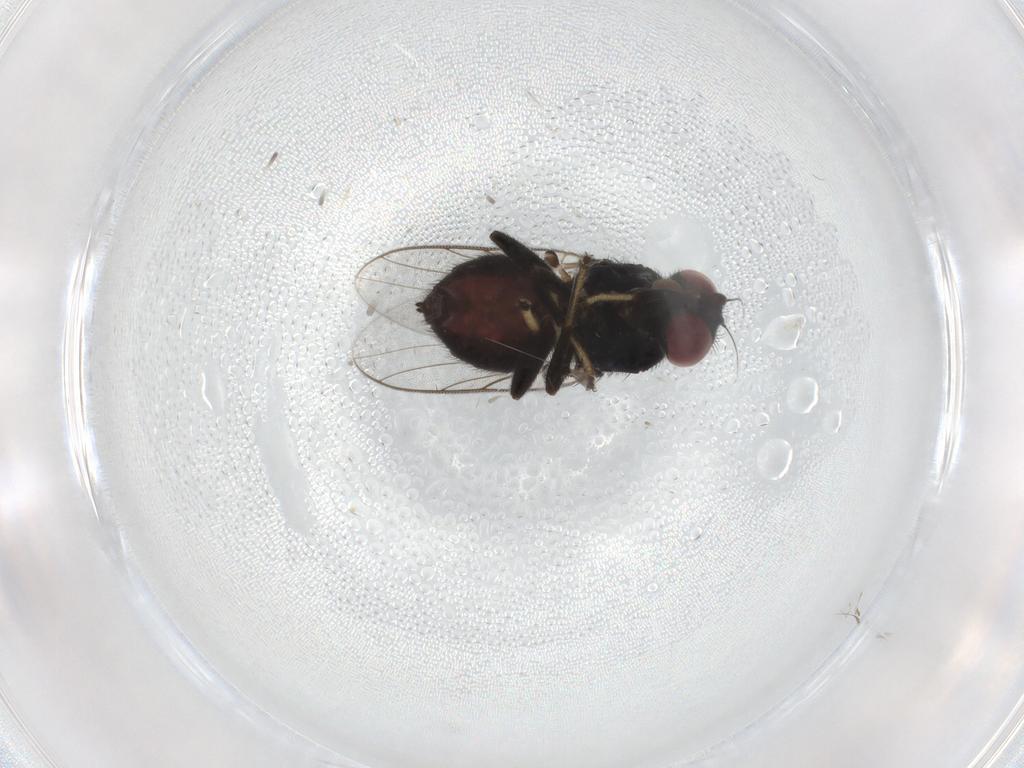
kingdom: Animalia
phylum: Arthropoda
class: Insecta
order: Diptera
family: Chloropidae
